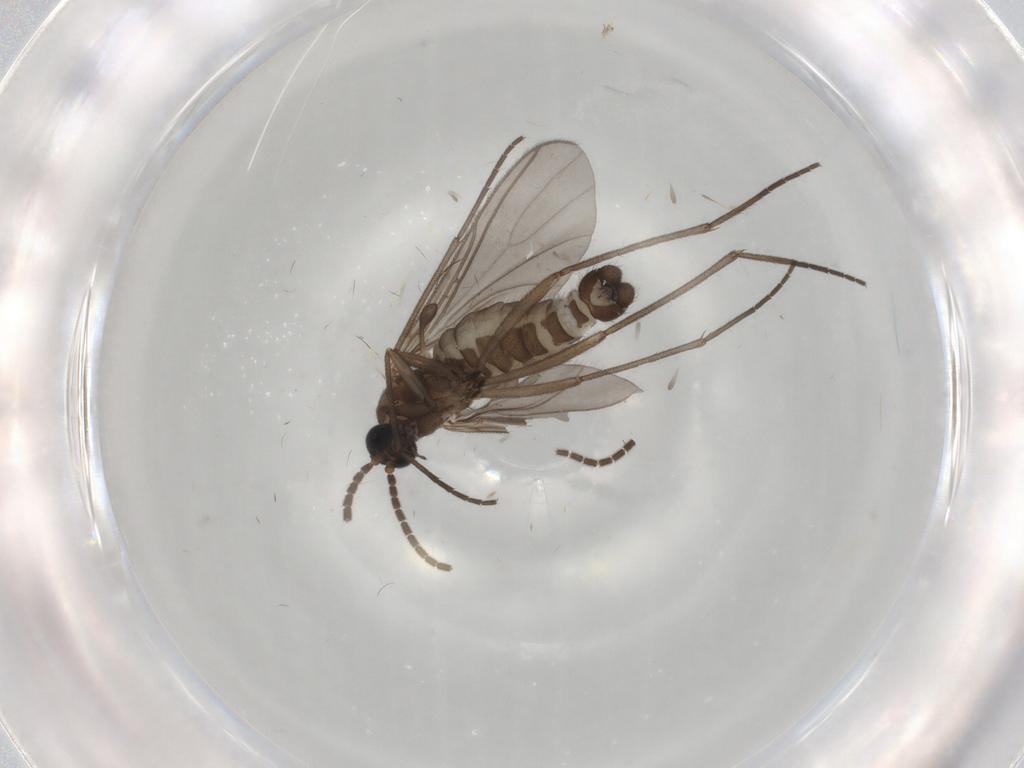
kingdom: Animalia
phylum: Arthropoda
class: Insecta
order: Diptera
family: Sciaridae
